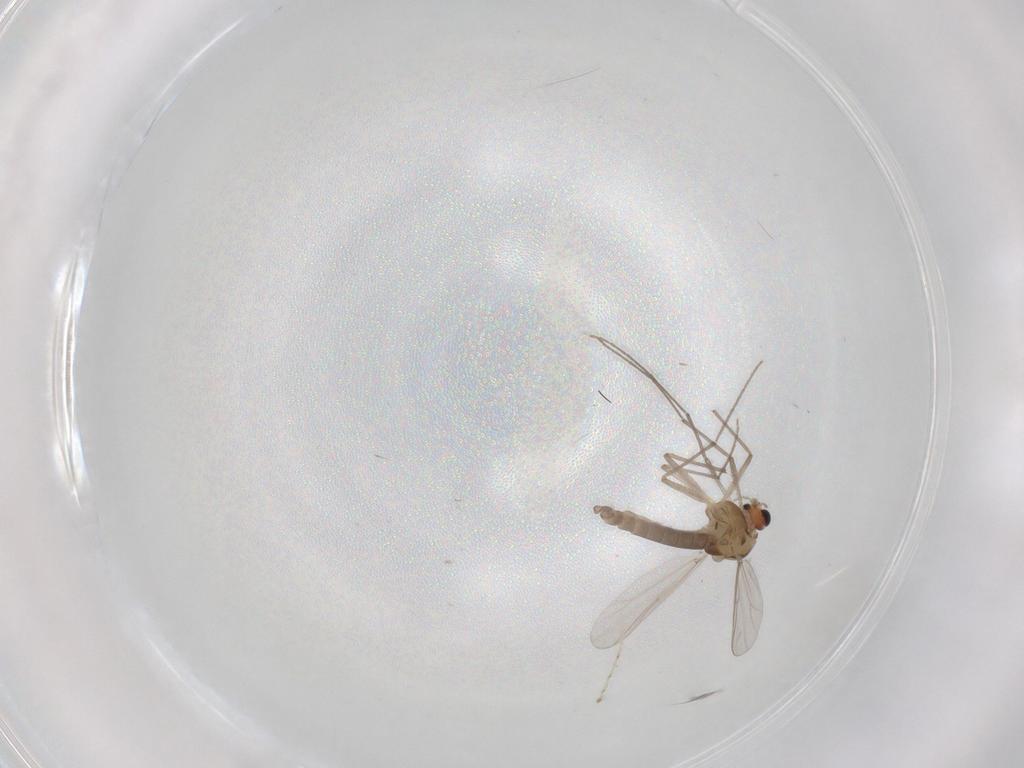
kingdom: Animalia
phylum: Arthropoda
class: Insecta
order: Diptera
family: Chironomidae
